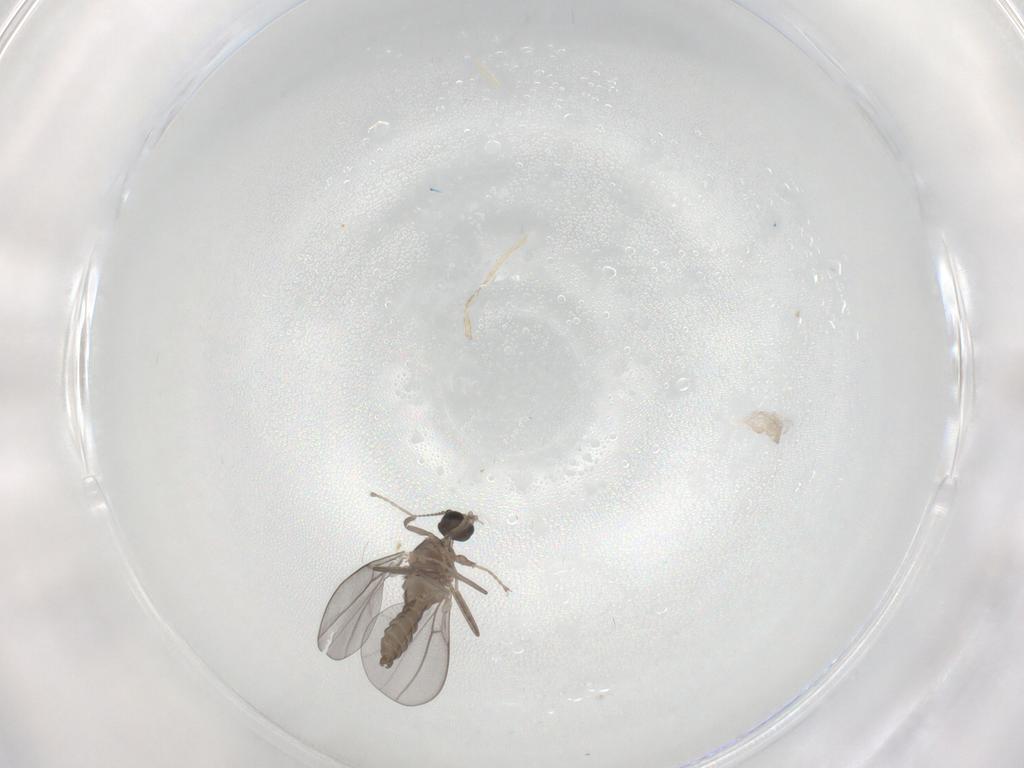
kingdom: Animalia
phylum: Arthropoda
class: Insecta
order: Diptera
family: Cecidomyiidae
